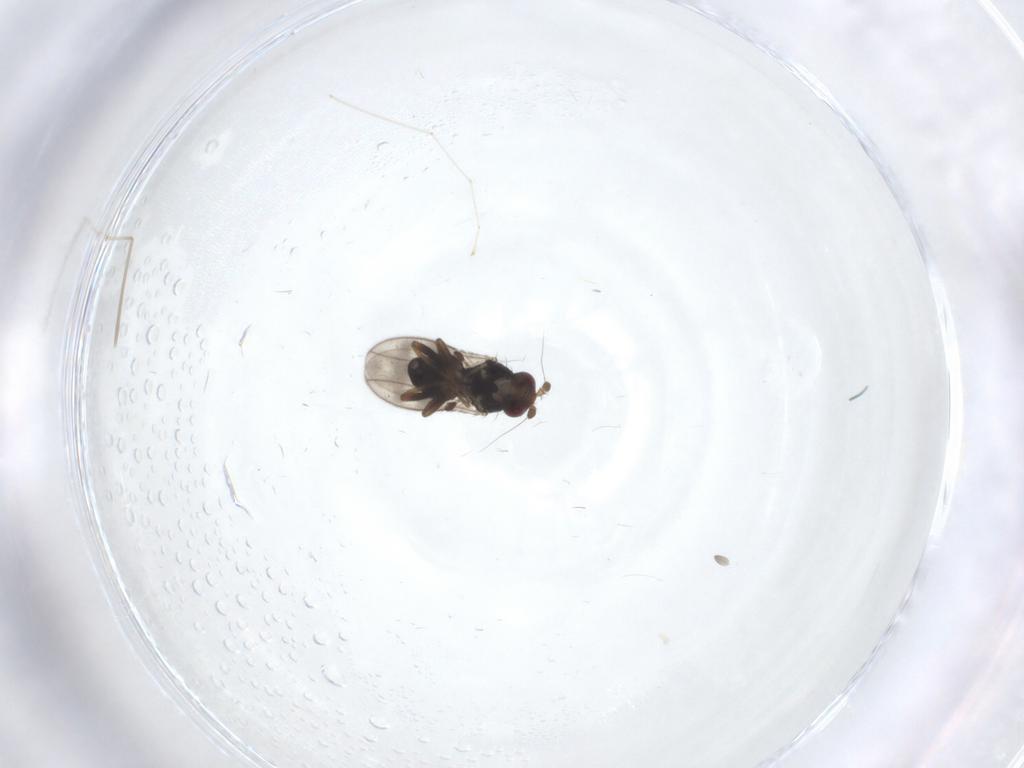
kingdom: Animalia
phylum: Arthropoda
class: Insecta
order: Diptera
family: Sphaeroceridae
